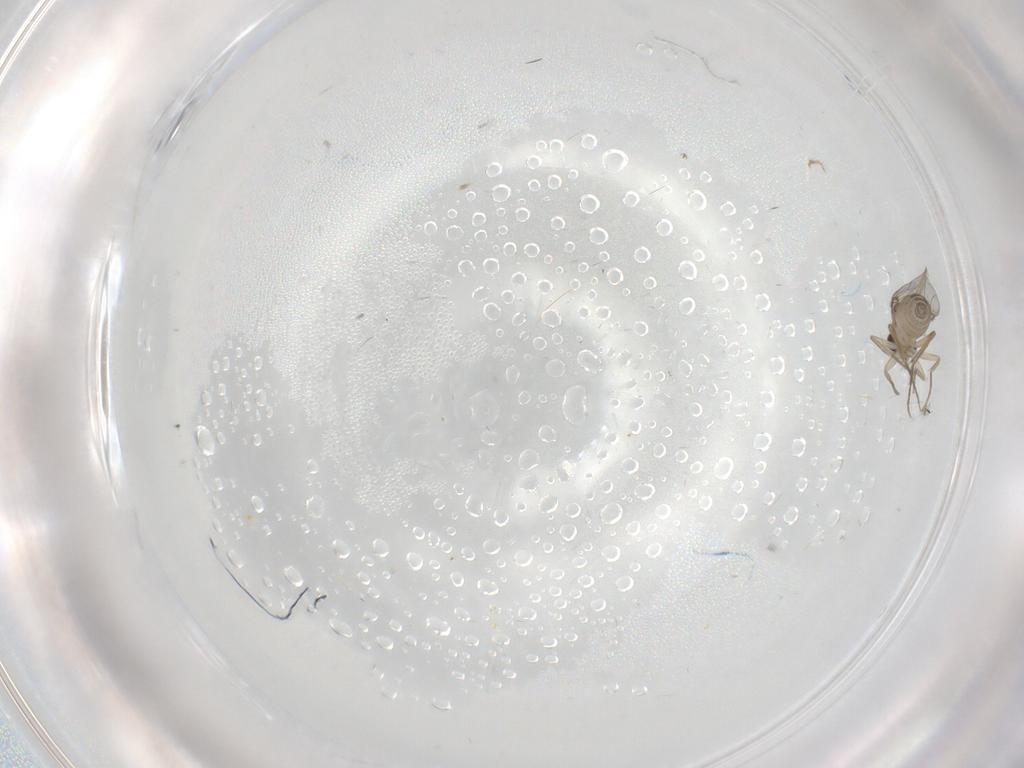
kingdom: Animalia
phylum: Arthropoda
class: Insecta
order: Diptera
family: Phoridae
